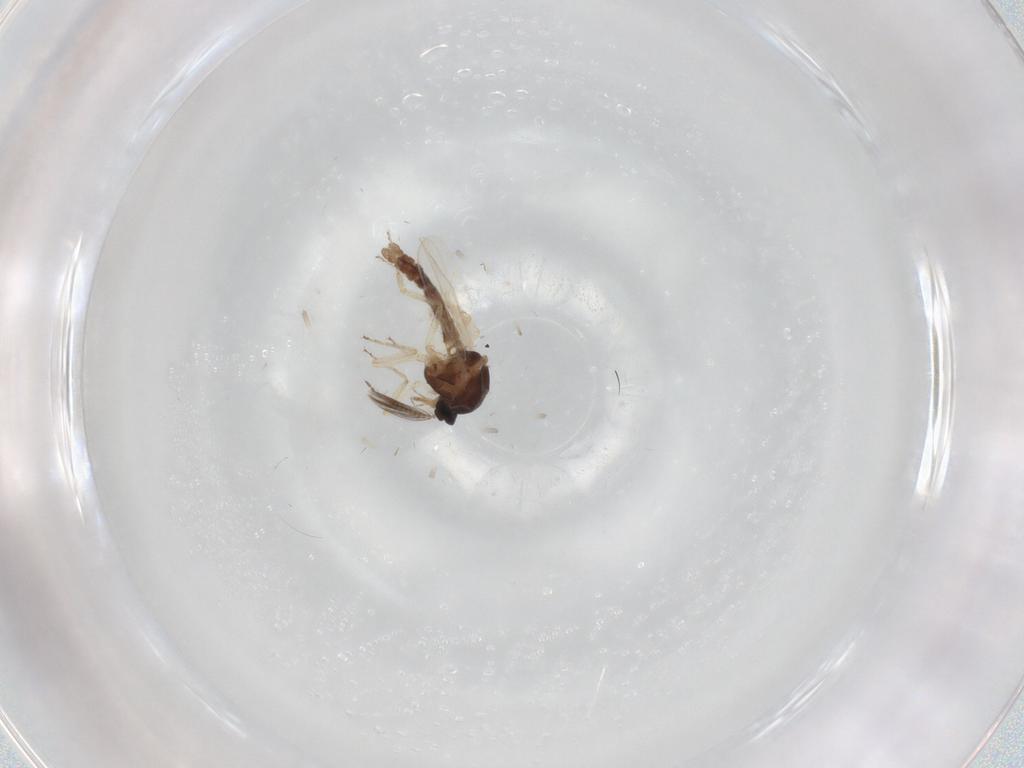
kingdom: Animalia
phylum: Arthropoda
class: Insecta
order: Diptera
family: Ceratopogonidae
